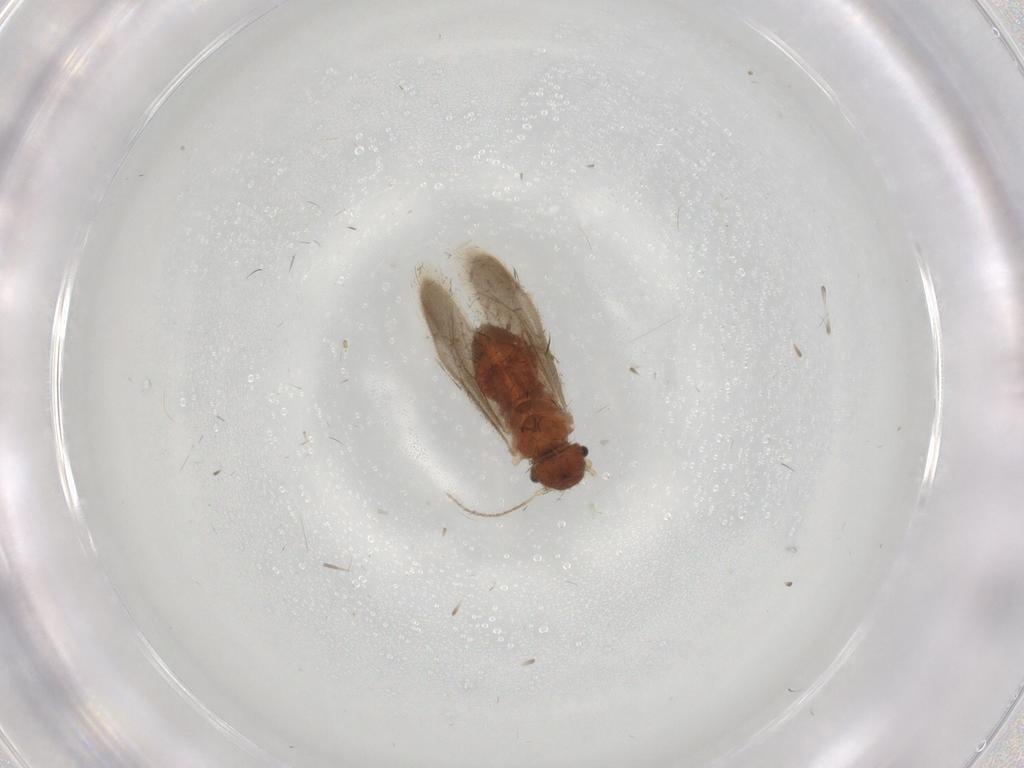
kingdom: Animalia
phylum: Arthropoda
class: Insecta
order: Psocodea
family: Archipsocidae
